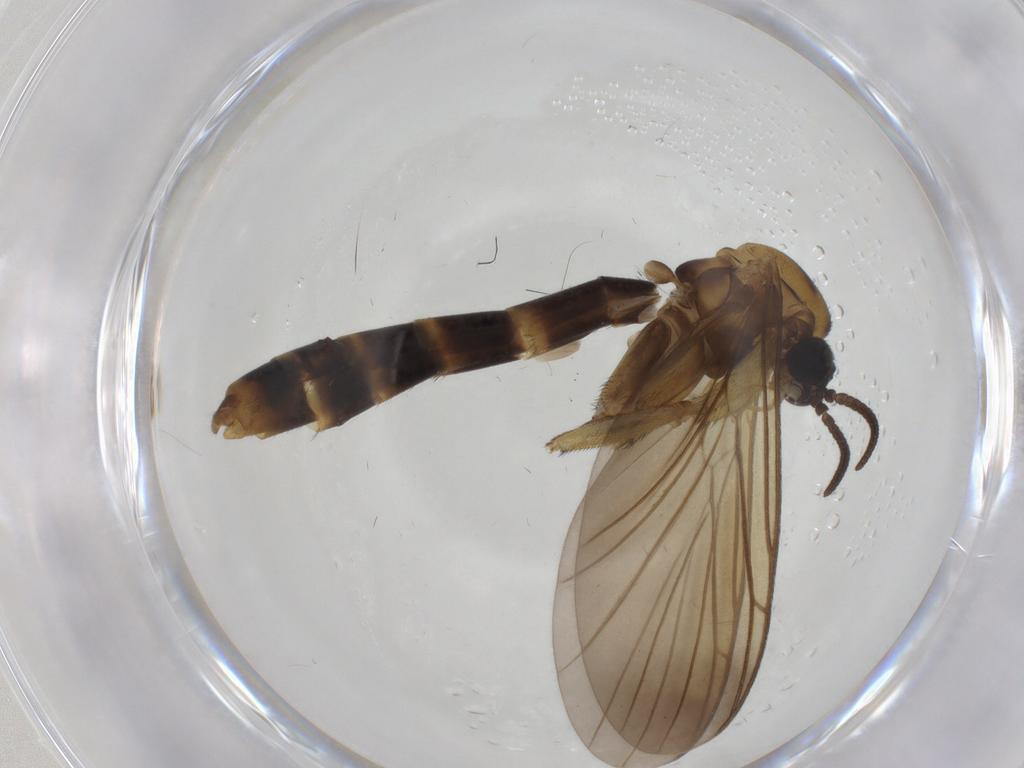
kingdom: Animalia
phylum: Arthropoda
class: Insecta
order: Diptera
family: Keroplatidae
